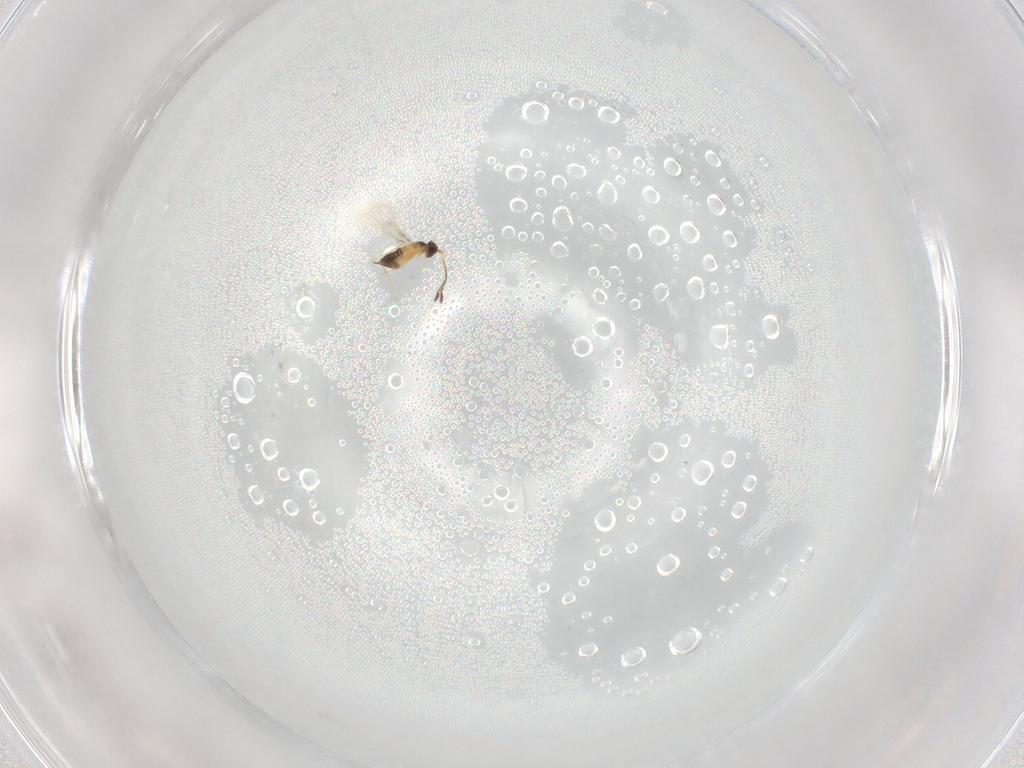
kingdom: Animalia
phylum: Arthropoda
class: Insecta
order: Hymenoptera
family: Mymaridae
